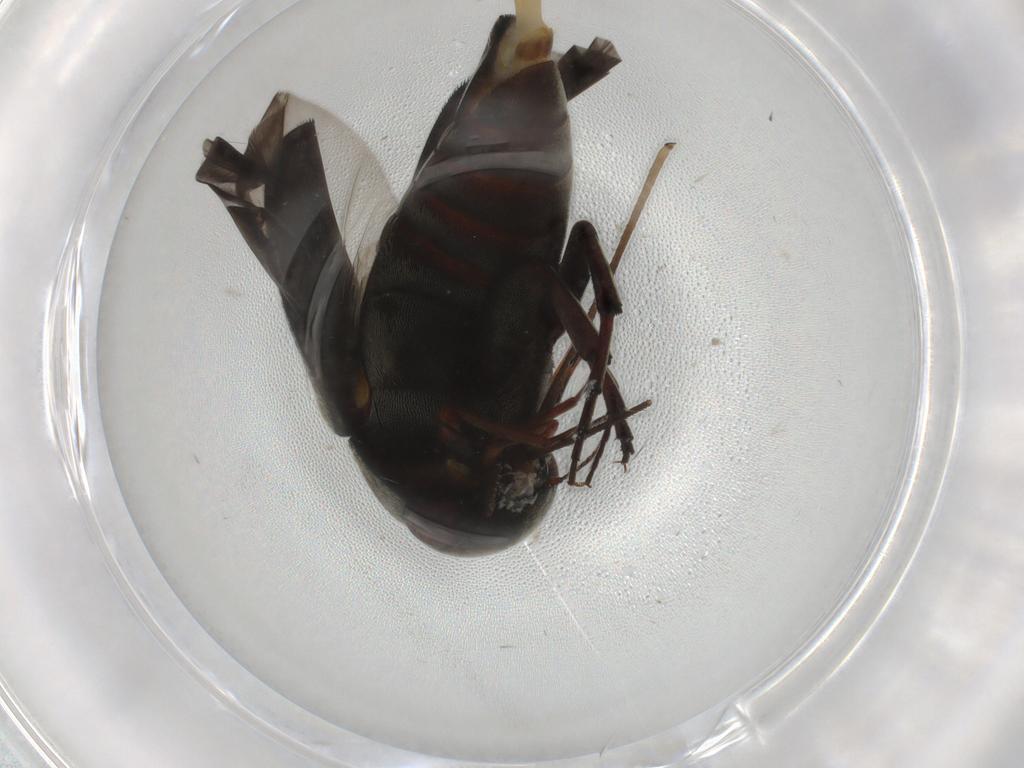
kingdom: Animalia
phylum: Arthropoda
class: Insecta
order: Coleoptera
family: Mordellidae
